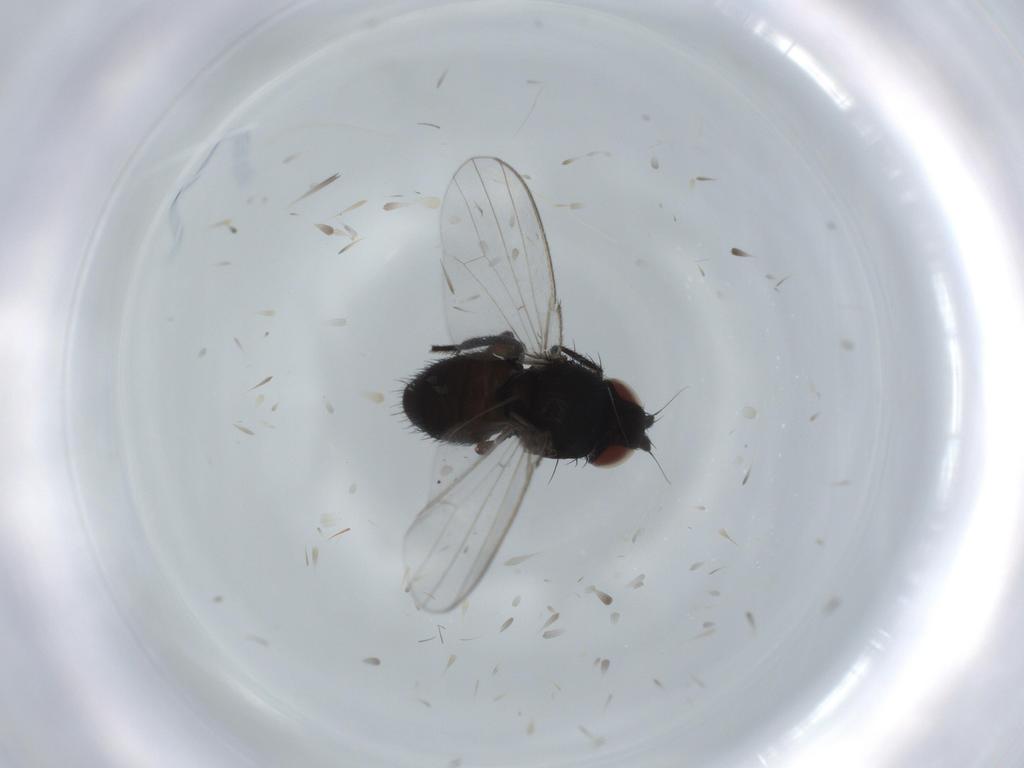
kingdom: Animalia
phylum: Arthropoda
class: Insecta
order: Diptera
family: Milichiidae
